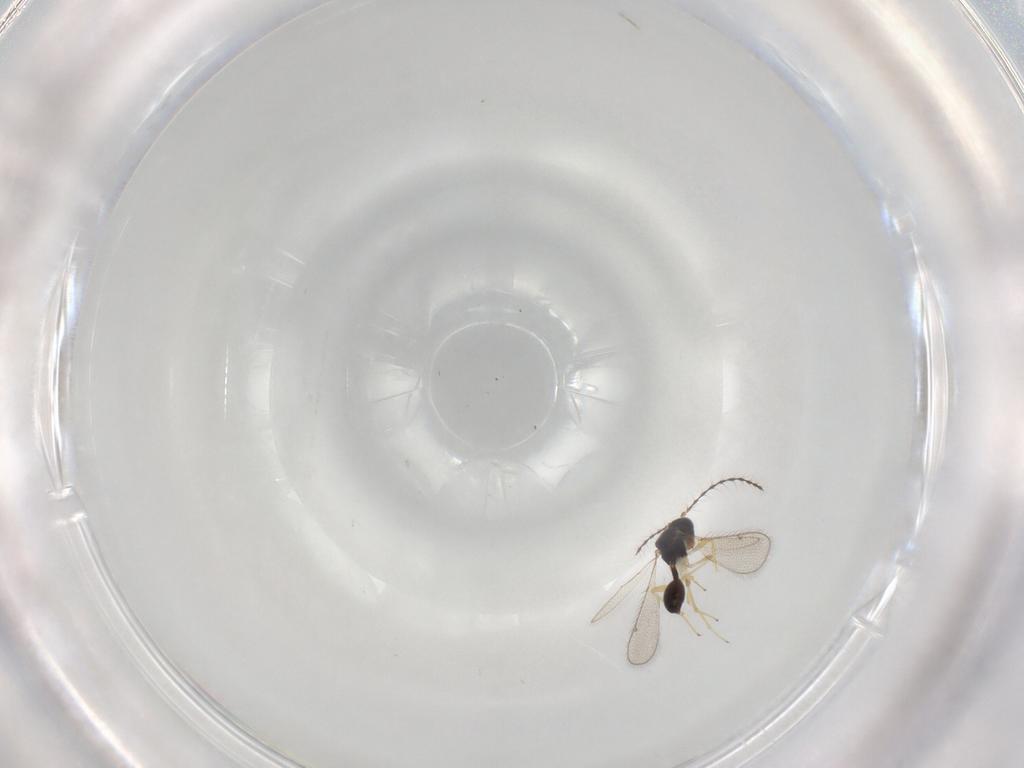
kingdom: Animalia
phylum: Arthropoda
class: Insecta
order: Hymenoptera
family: Diparidae
